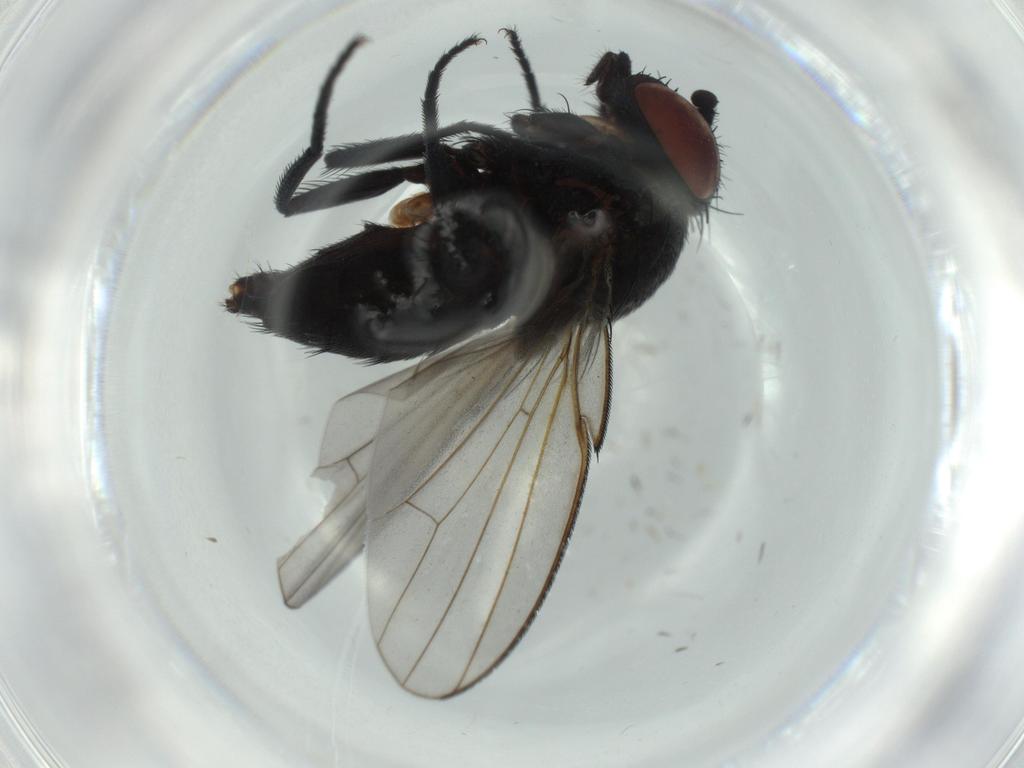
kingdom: Animalia
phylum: Arthropoda
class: Insecta
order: Diptera
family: Milichiidae
